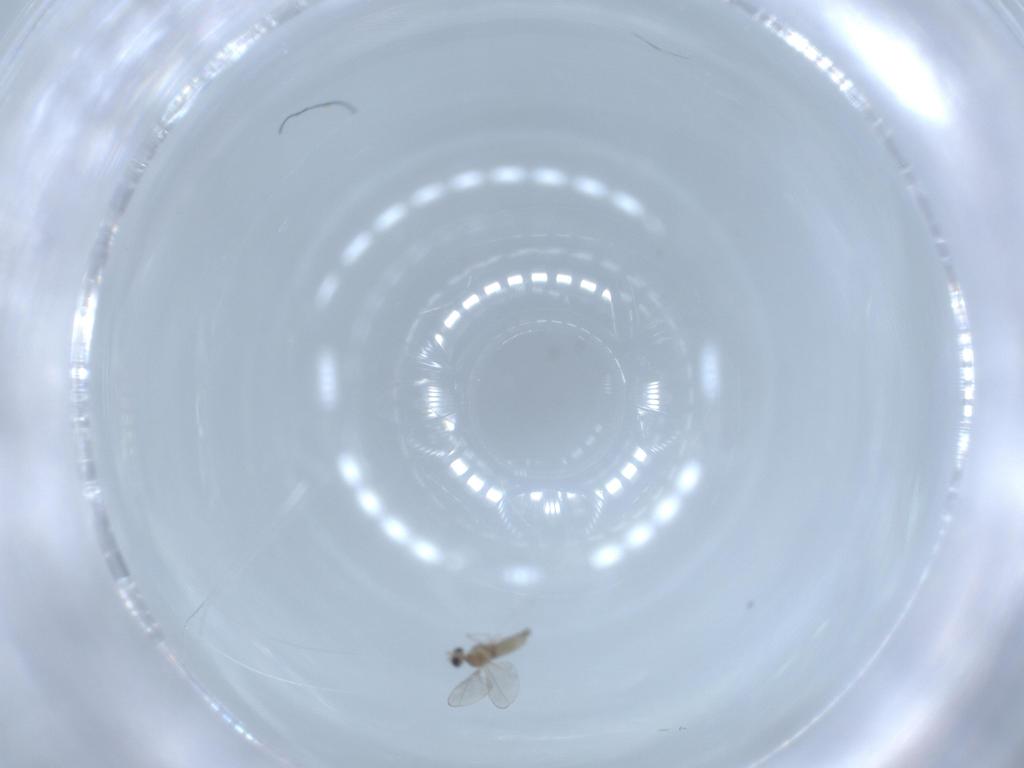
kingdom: Animalia
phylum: Arthropoda
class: Insecta
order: Diptera
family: Cecidomyiidae
